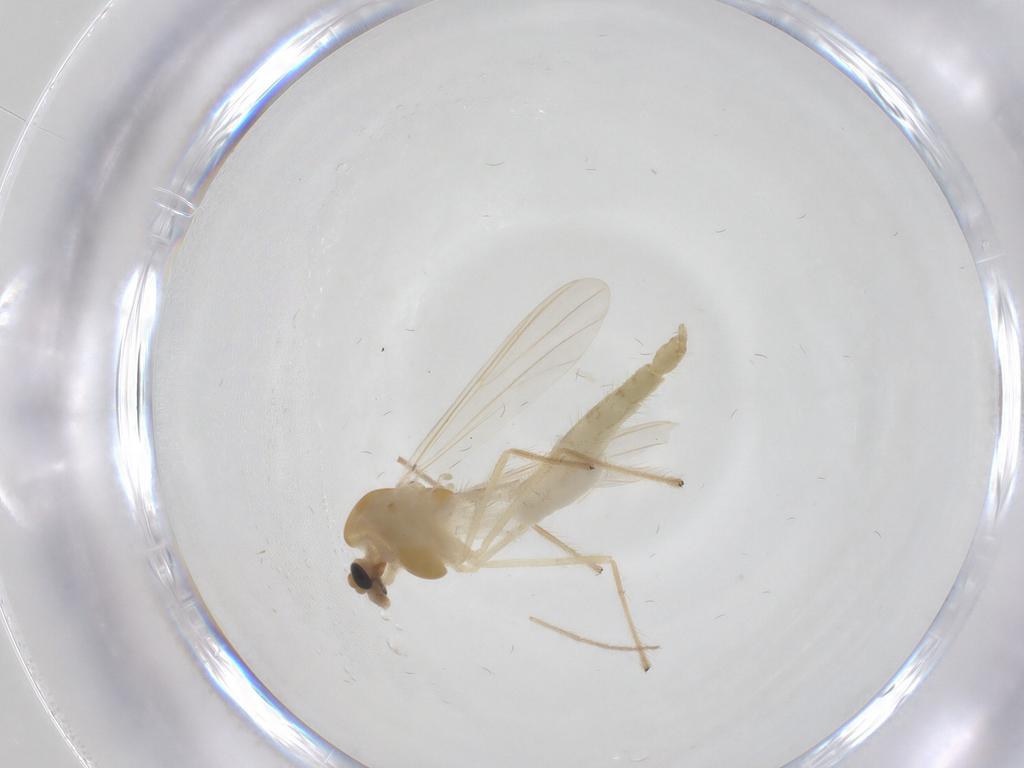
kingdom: Animalia
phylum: Arthropoda
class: Insecta
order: Diptera
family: Chironomidae
